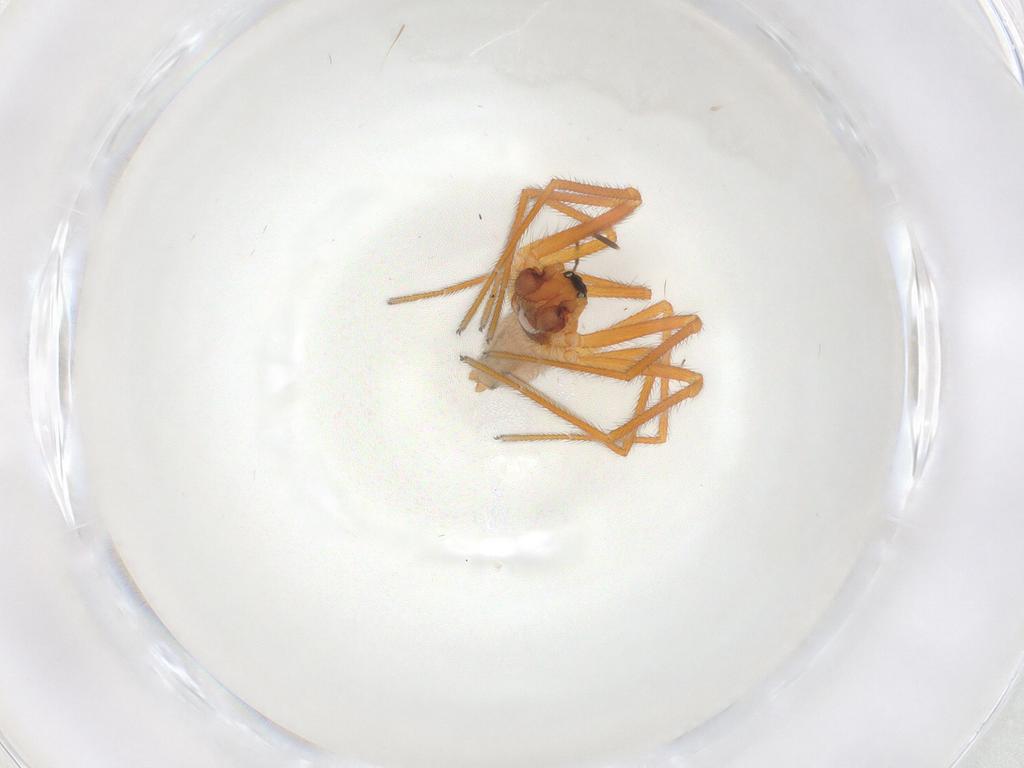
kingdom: Animalia
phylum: Arthropoda
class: Arachnida
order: Araneae
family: Linyphiidae
